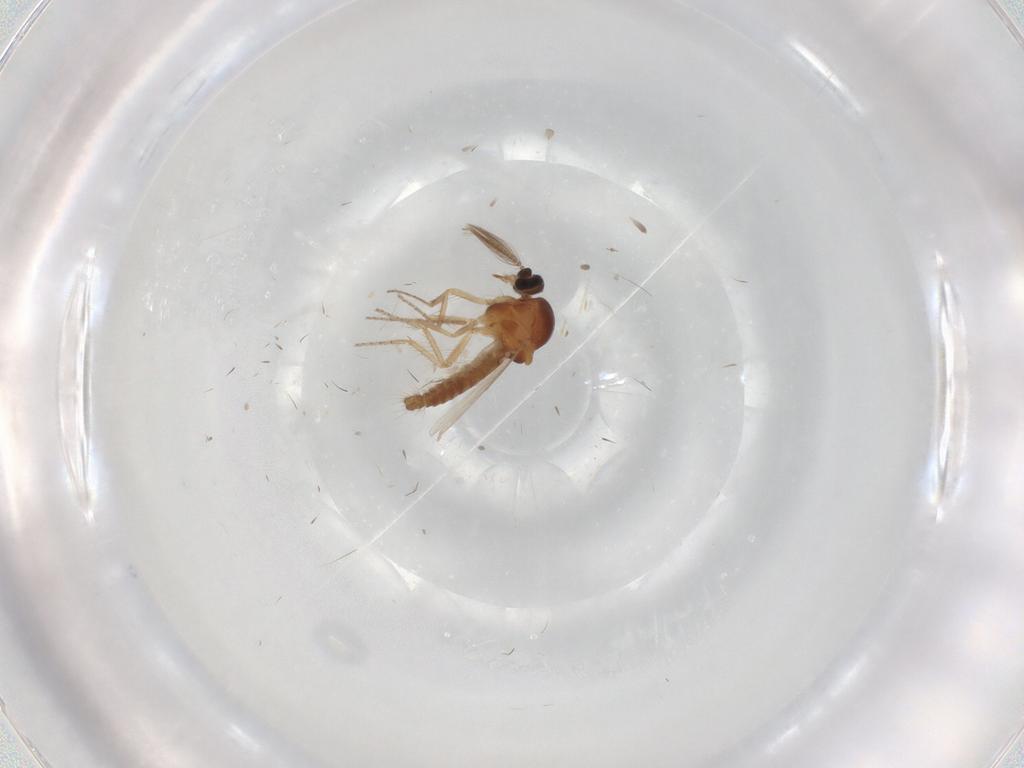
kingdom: Animalia
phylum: Arthropoda
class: Insecta
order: Diptera
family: Ceratopogonidae
